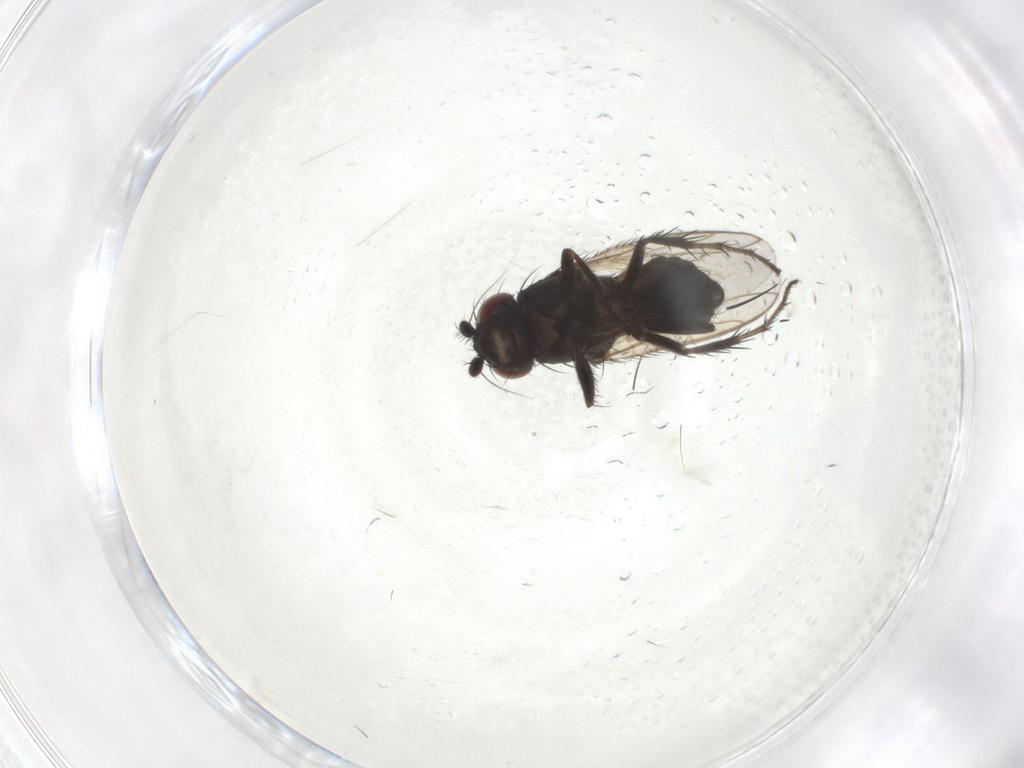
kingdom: Animalia
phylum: Arthropoda
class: Insecta
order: Diptera
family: Sphaeroceridae
